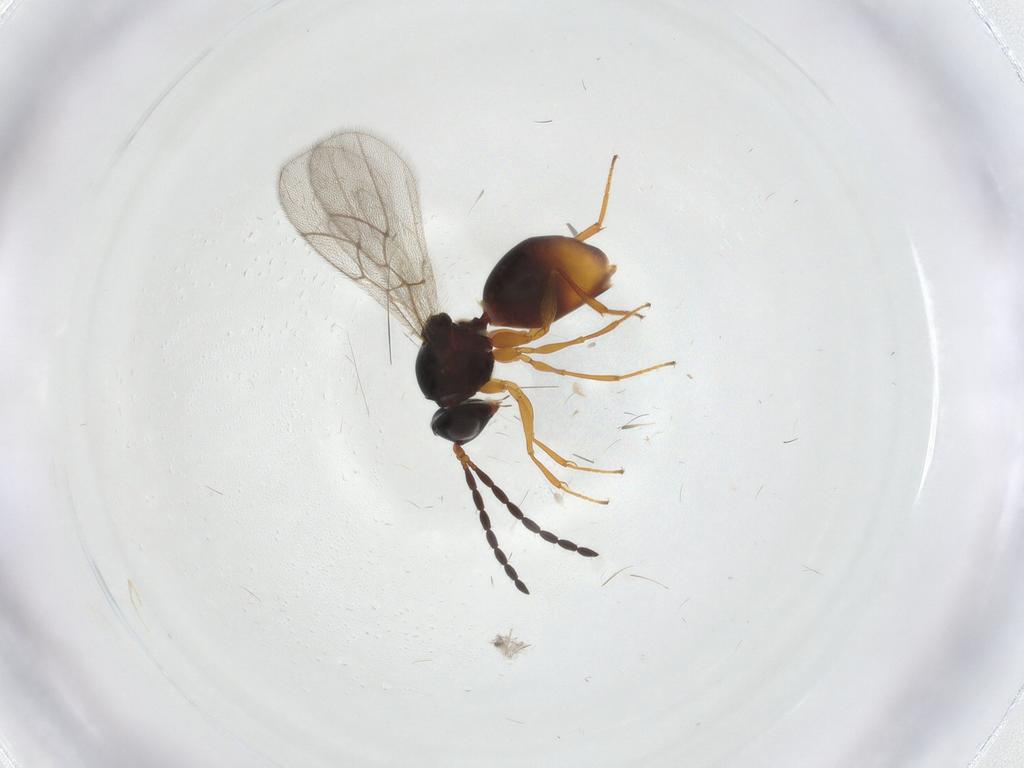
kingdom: Animalia
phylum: Arthropoda
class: Insecta
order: Hymenoptera
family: Figitidae
